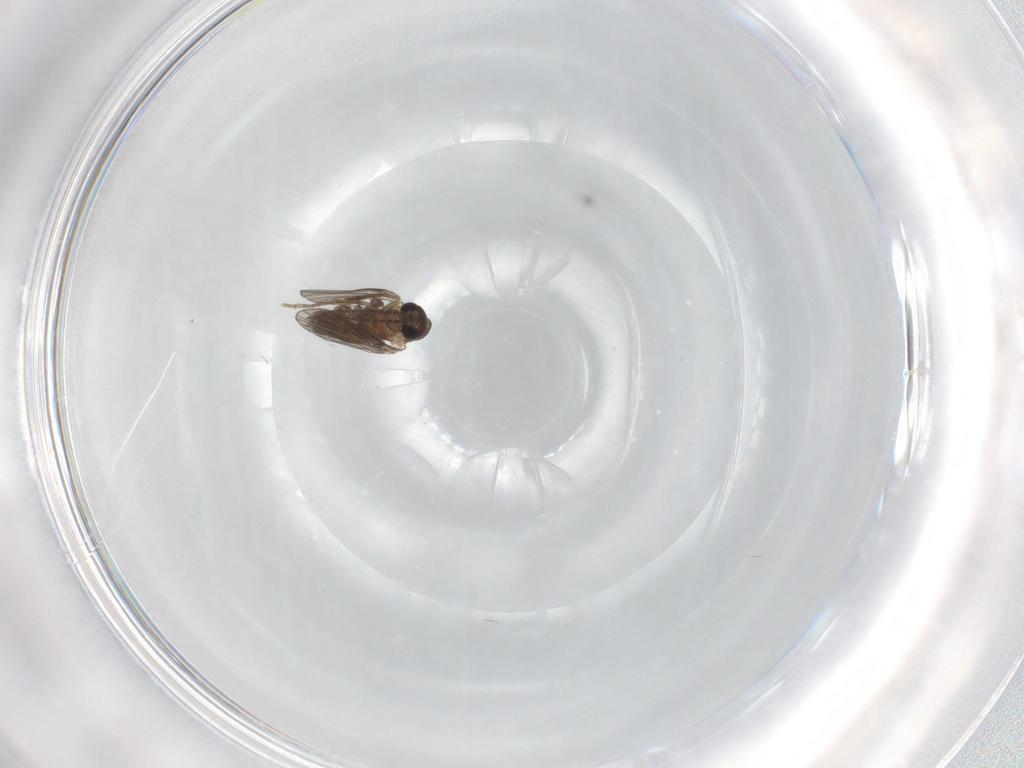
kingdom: Animalia
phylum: Arthropoda
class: Insecta
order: Diptera
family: Psychodidae
